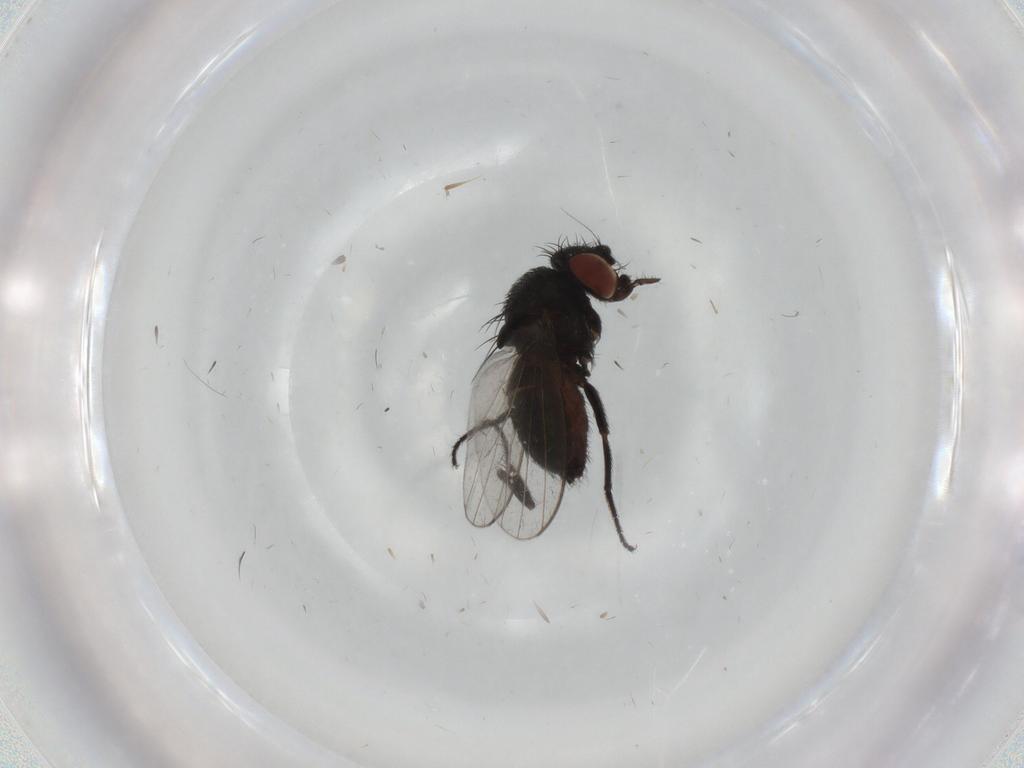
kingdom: Animalia
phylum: Arthropoda
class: Insecta
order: Diptera
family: Milichiidae
